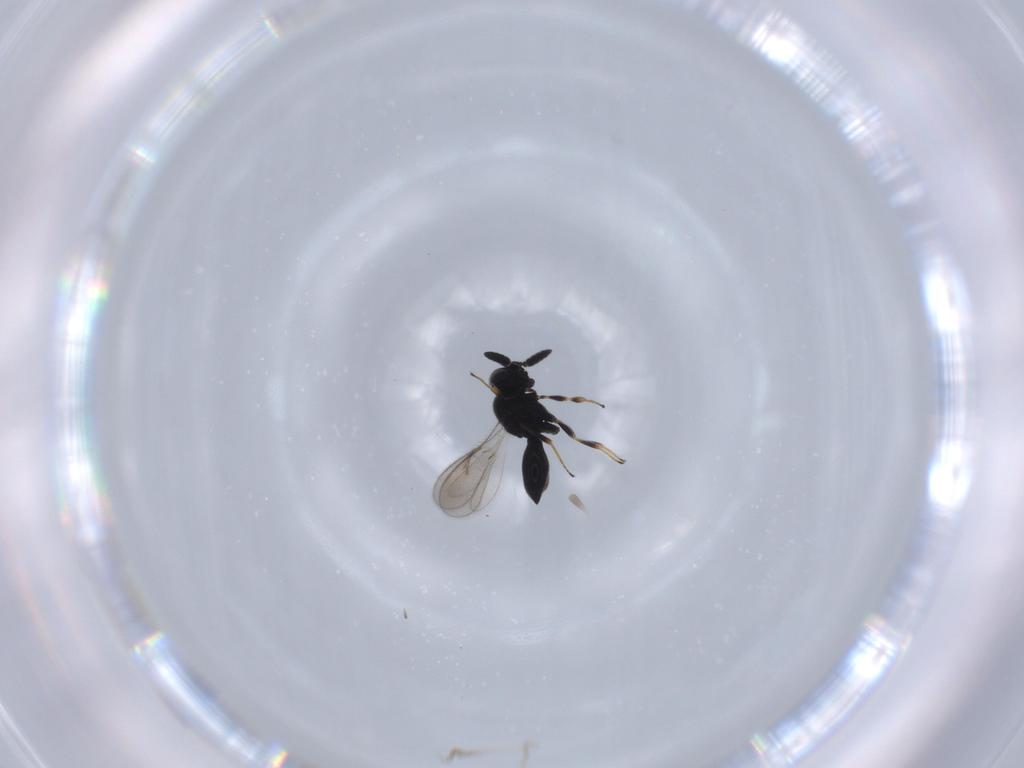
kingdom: Animalia
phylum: Arthropoda
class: Insecta
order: Hymenoptera
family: Scelionidae
